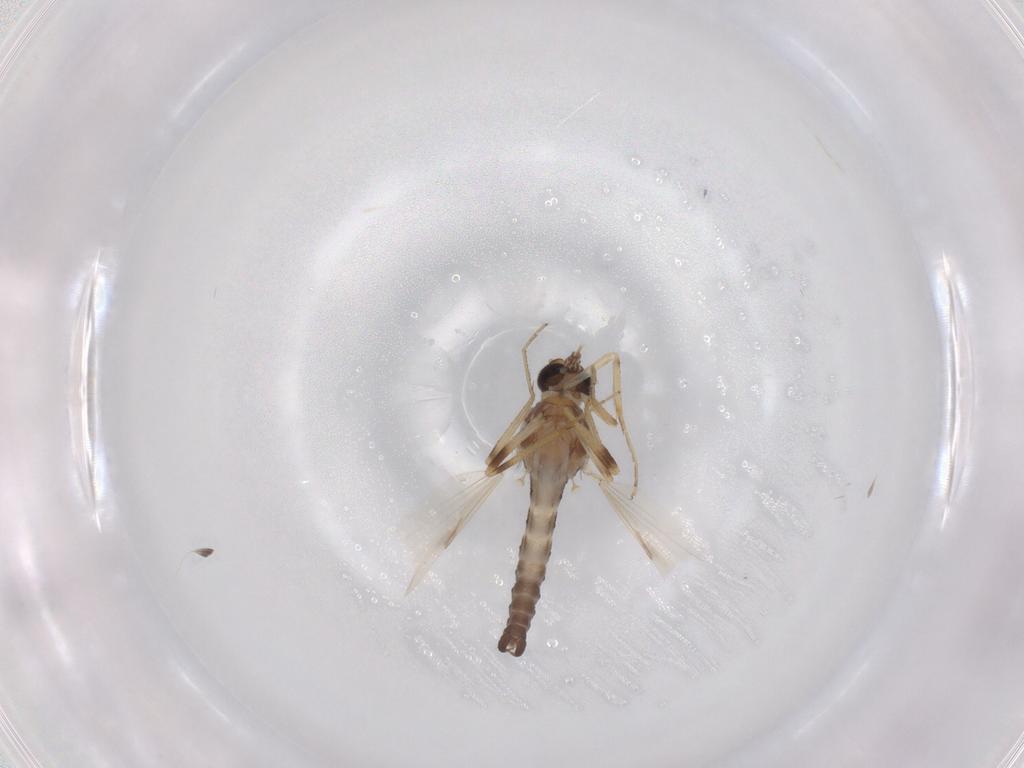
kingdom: Animalia
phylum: Arthropoda
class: Insecta
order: Diptera
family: Ceratopogonidae
